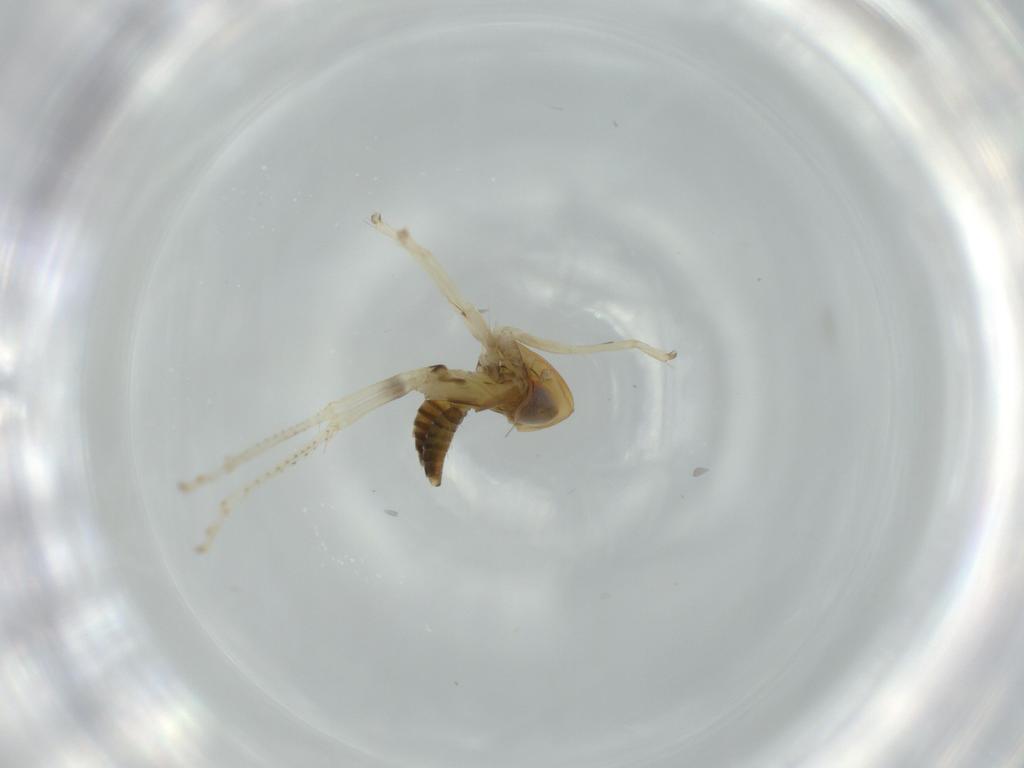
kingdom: Animalia
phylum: Arthropoda
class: Insecta
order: Hemiptera
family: Cicadellidae
